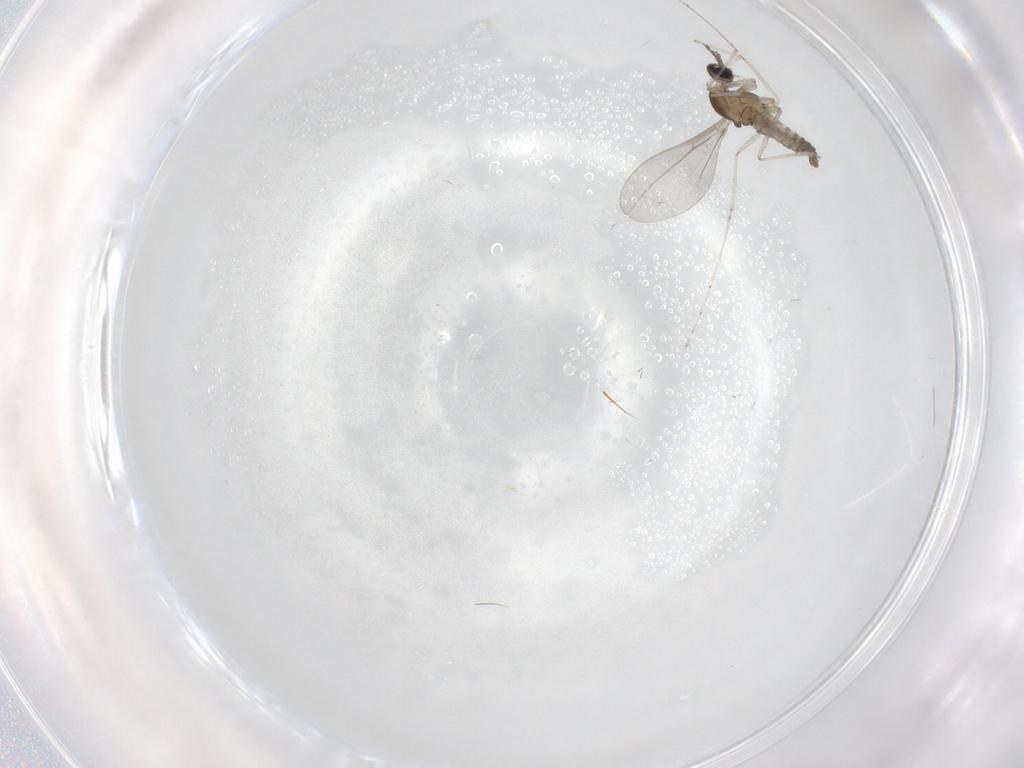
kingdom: Animalia
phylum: Arthropoda
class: Insecta
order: Diptera
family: Cecidomyiidae
